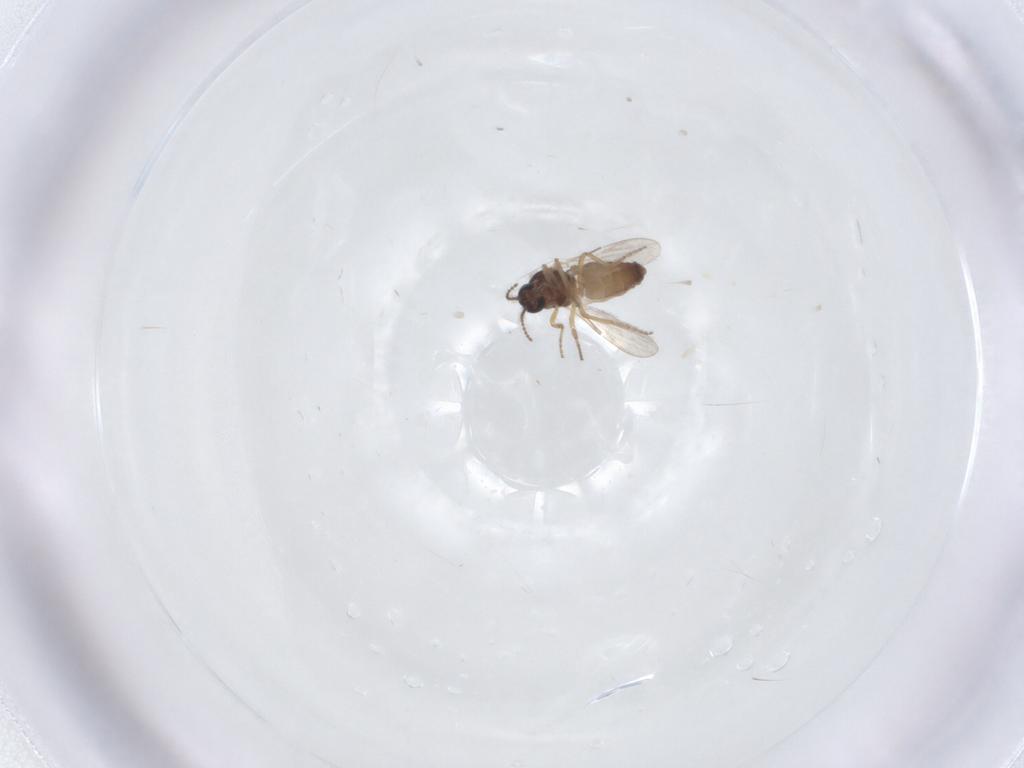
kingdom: Animalia
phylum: Arthropoda
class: Insecta
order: Diptera
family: Ceratopogonidae
